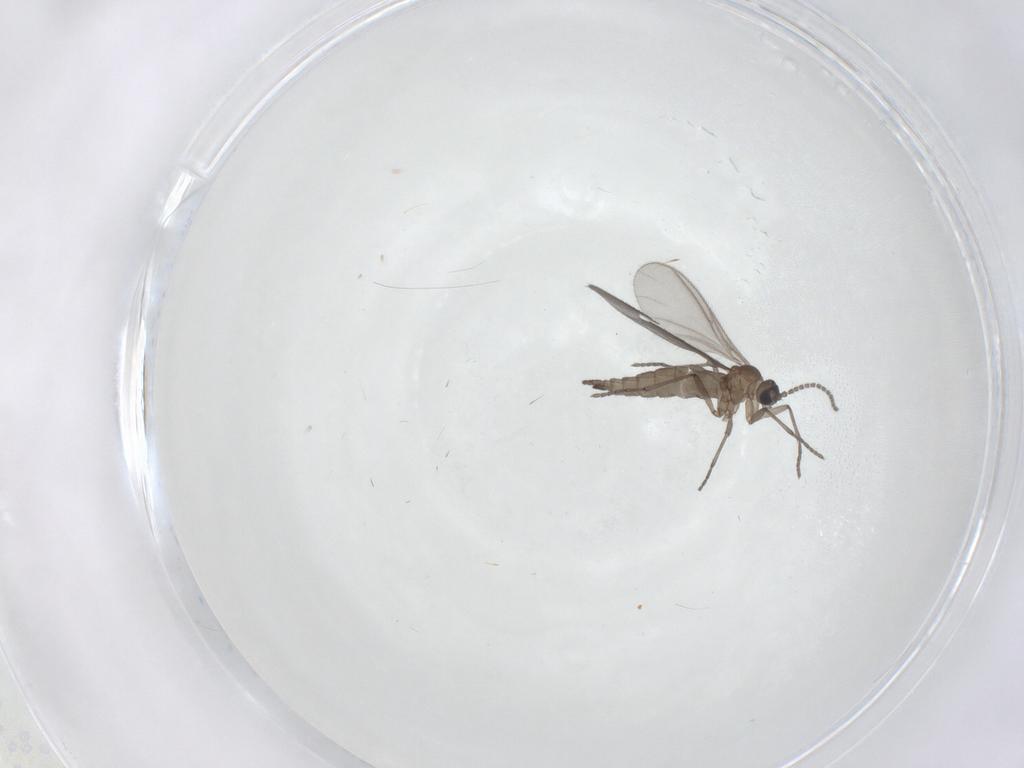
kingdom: Animalia
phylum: Arthropoda
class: Insecta
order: Diptera
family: Sciaridae
